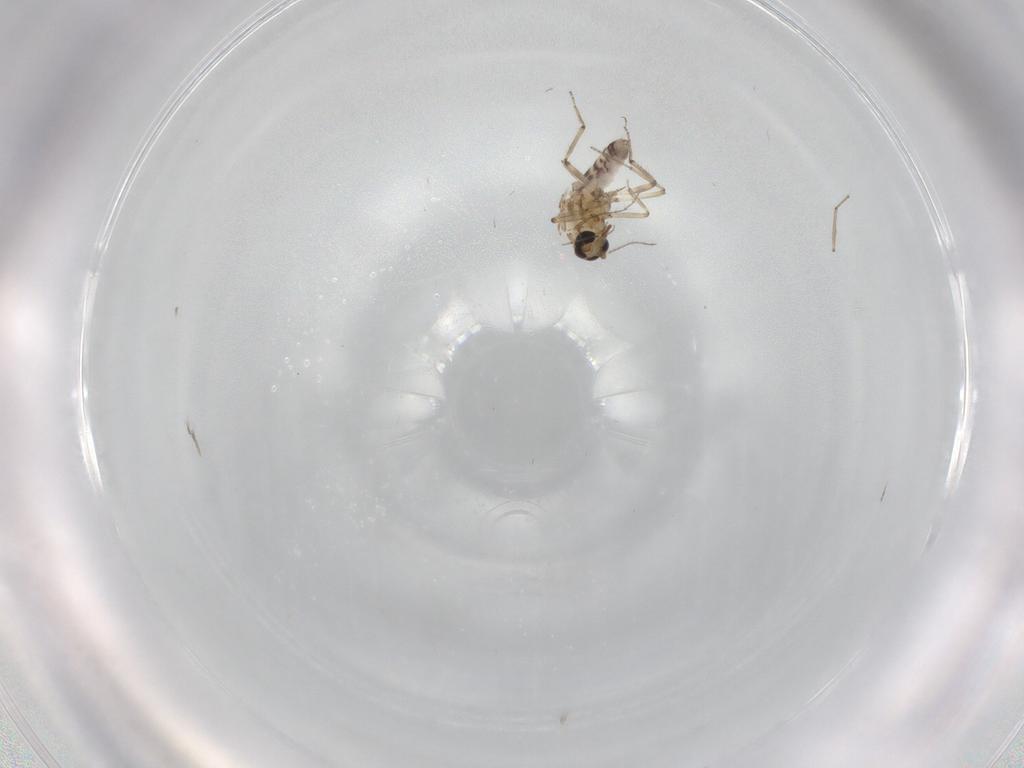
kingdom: Animalia
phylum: Arthropoda
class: Insecta
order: Diptera
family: Ceratopogonidae
